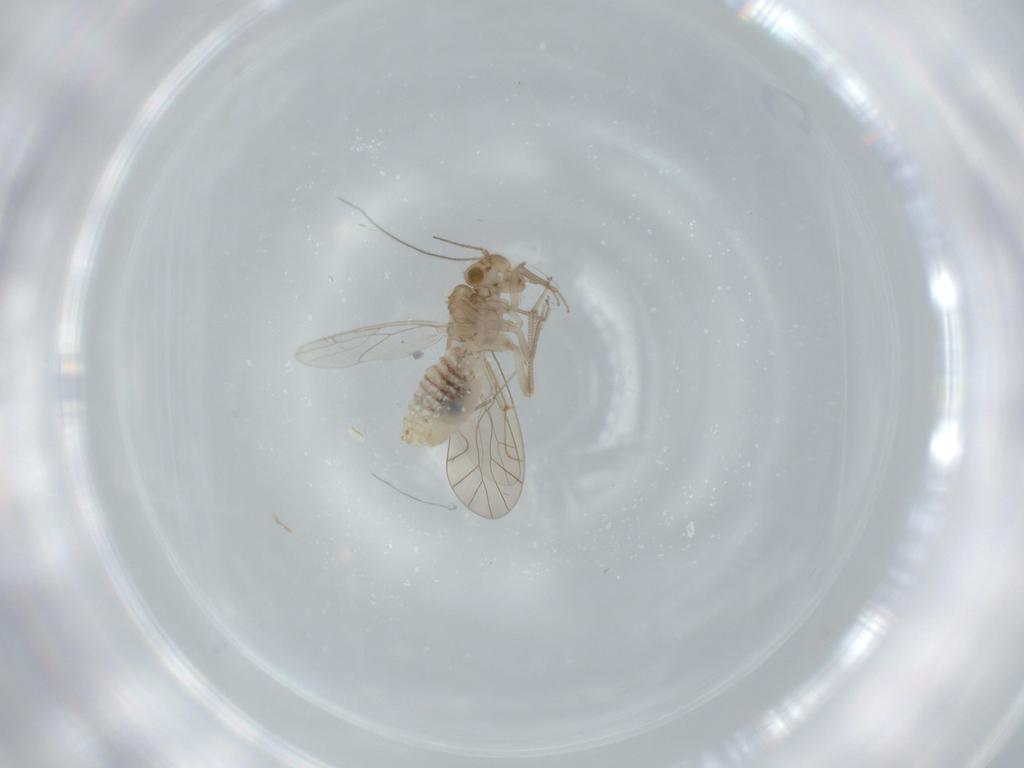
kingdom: Animalia
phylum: Arthropoda
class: Insecta
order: Psocodea
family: Lachesillidae
